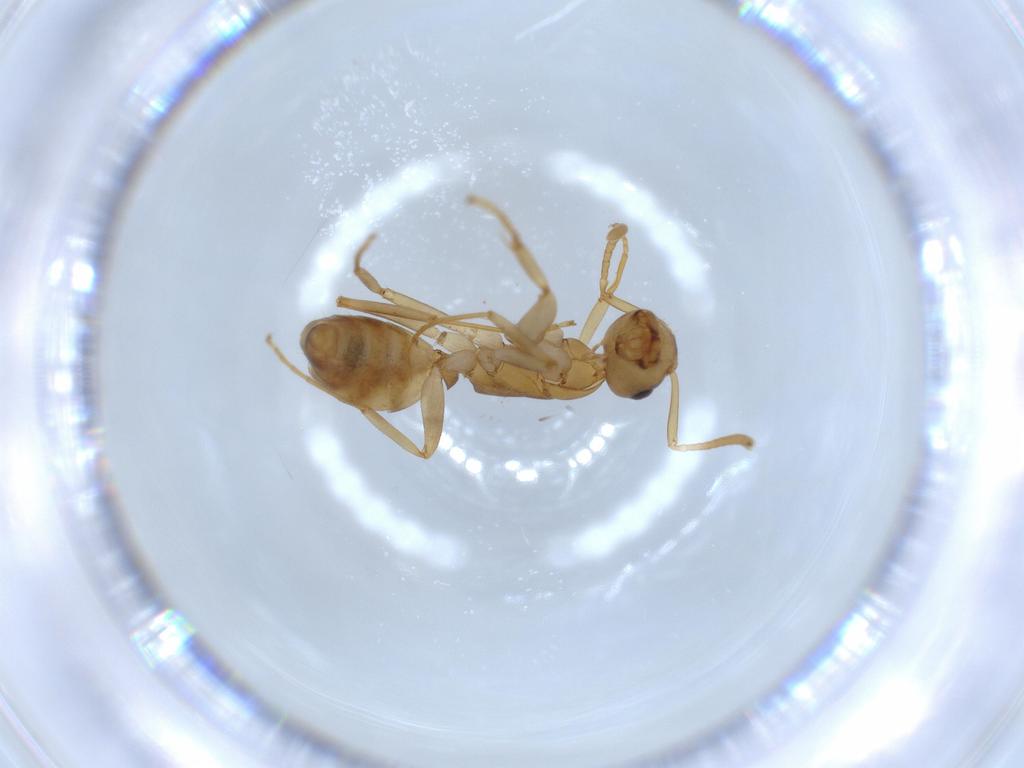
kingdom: Animalia
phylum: Arthropoda
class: Insecta
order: Hymenoptera
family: Formicidae
